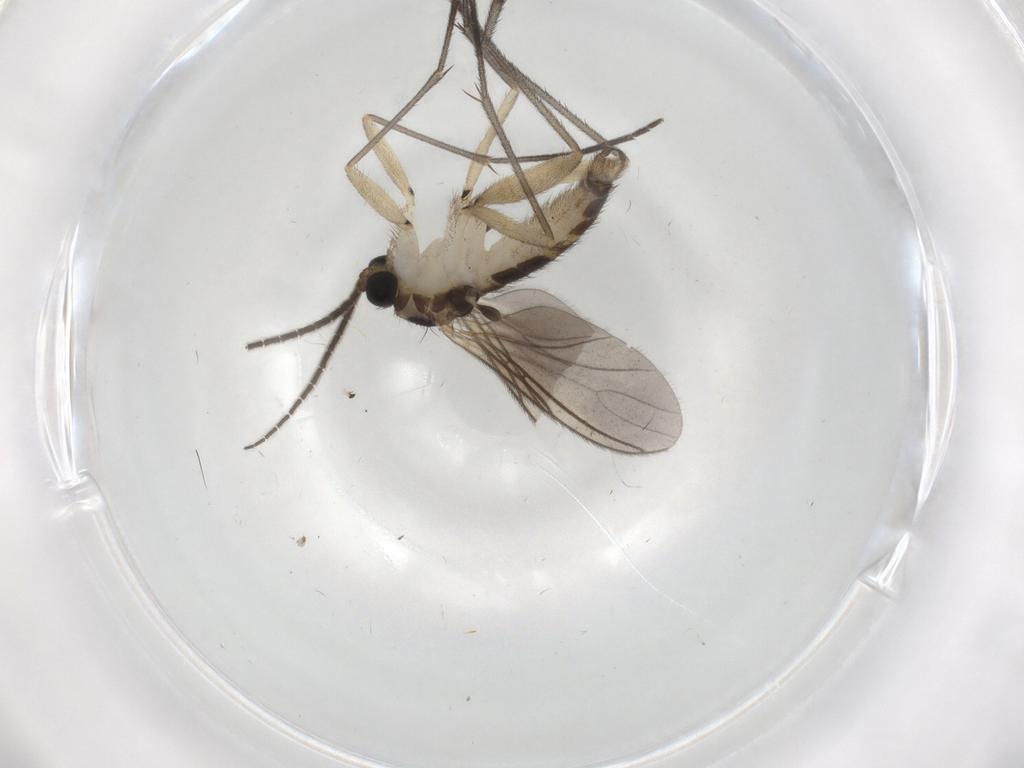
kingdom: Animalia
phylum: Arthropoda
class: Insecta
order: Diptera
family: Sciaridae
